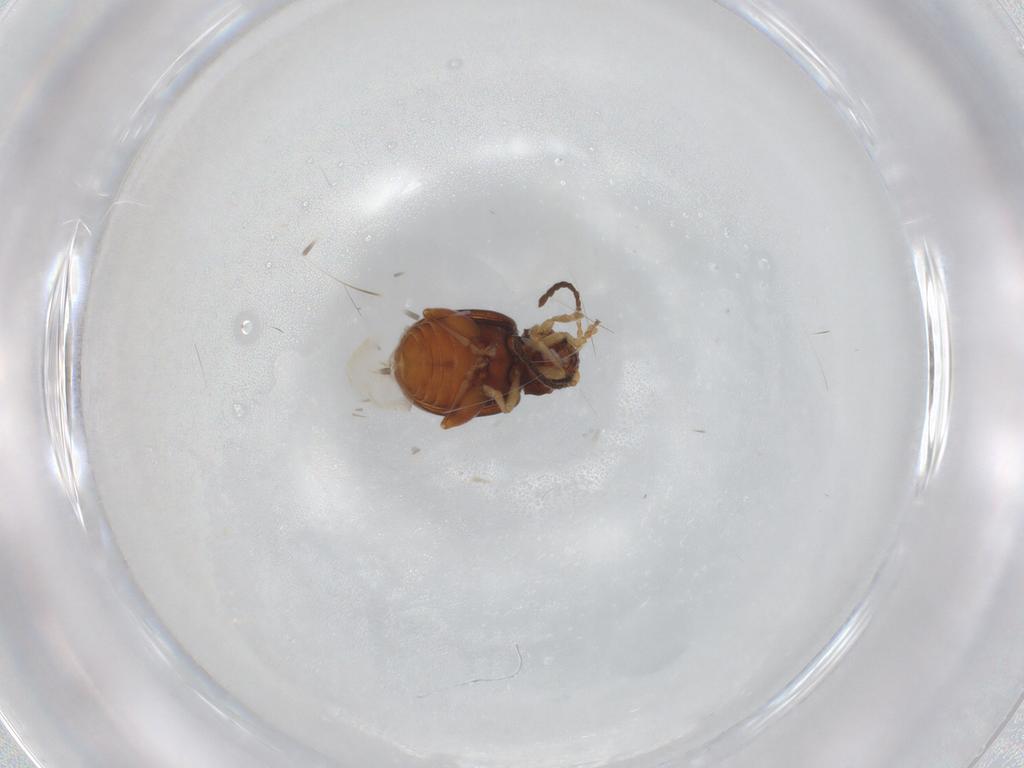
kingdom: Animalia
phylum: Arthropoda
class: Insecta
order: Coleoptera
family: Chrysomelidae
